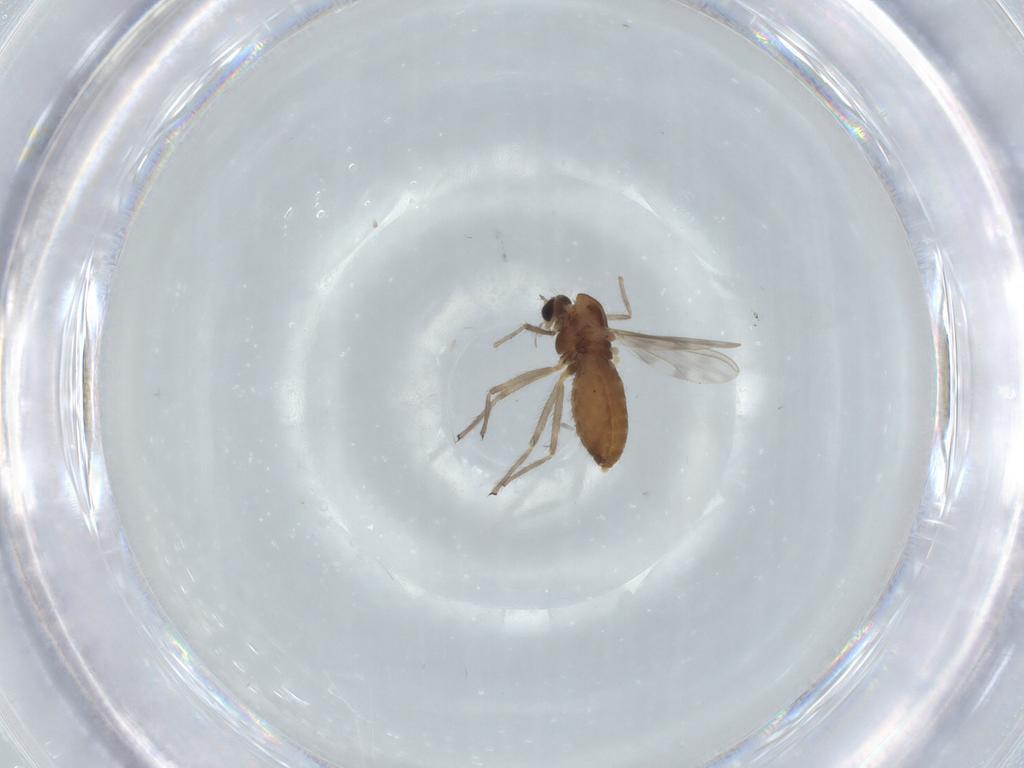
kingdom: Animalia
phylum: Arthropoda
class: Insecta
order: Diptera
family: Chironomidae
